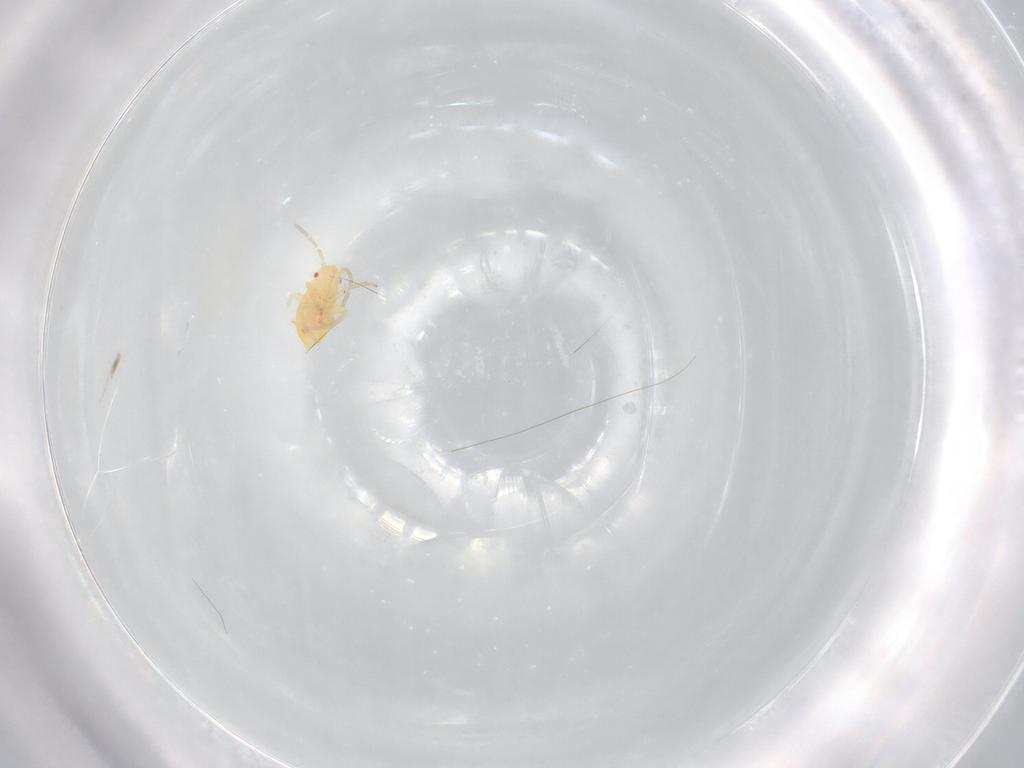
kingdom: Animalia
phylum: Arthropoda
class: Insecta
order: Hemiptera
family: Miridae
